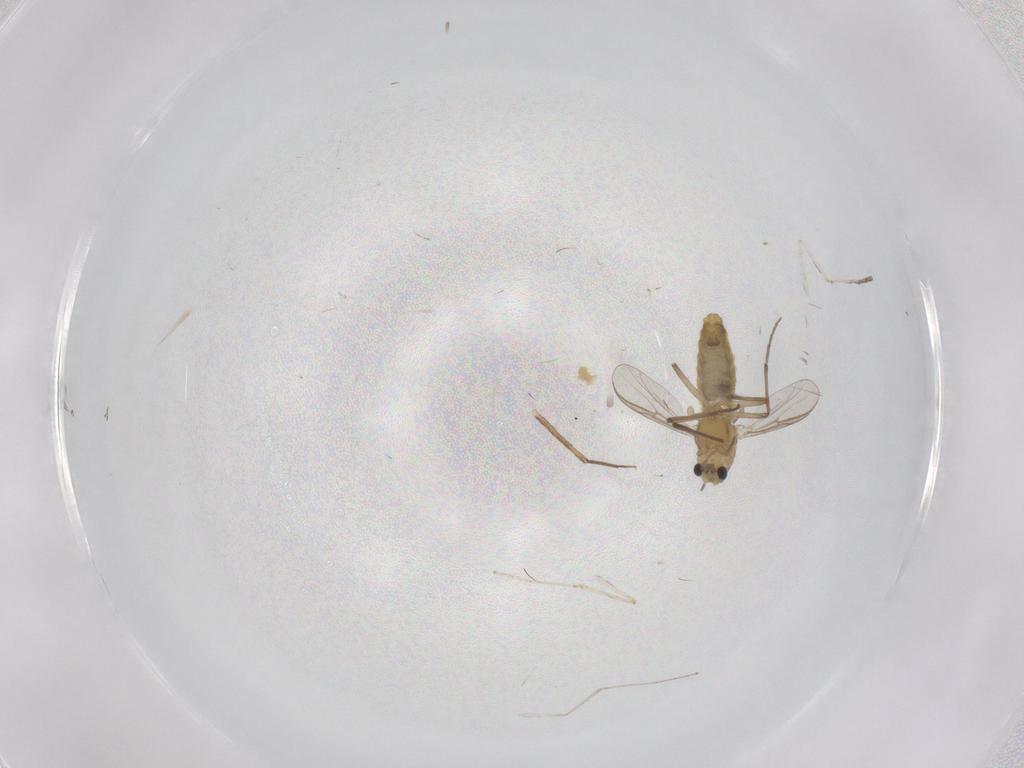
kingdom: Animalia
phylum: Arthropoda
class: Insecta
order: Diptera
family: Chironomidae
